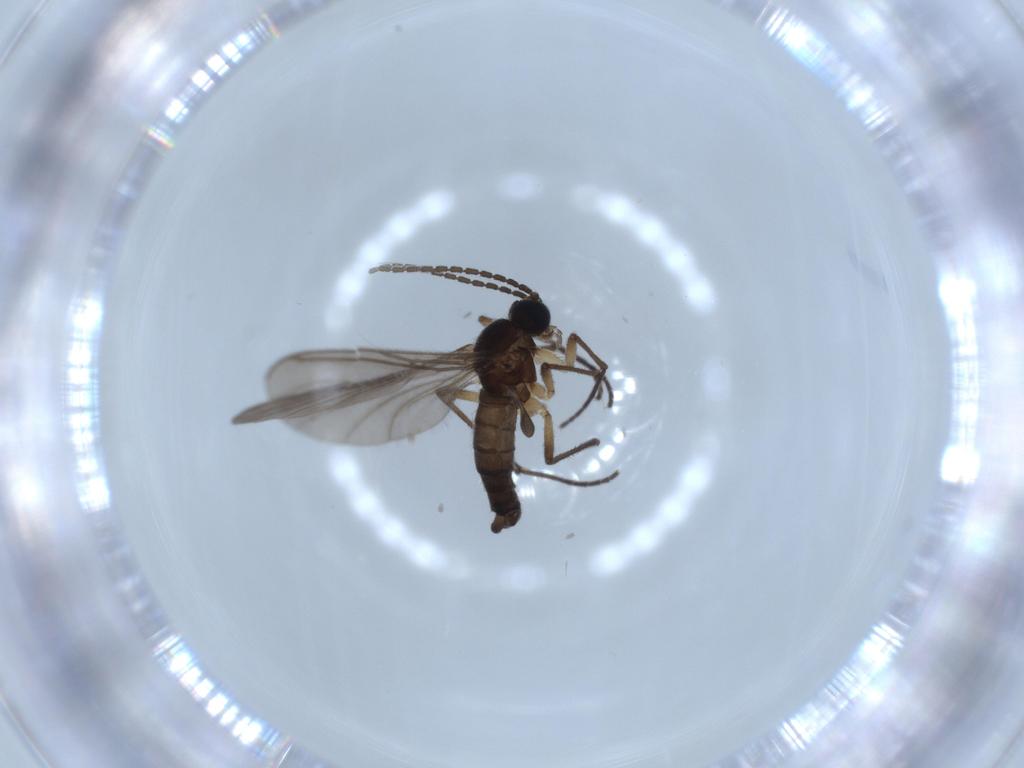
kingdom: Animalia
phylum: Arthropoda
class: Insecta
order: Diptera
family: Sciaridae
